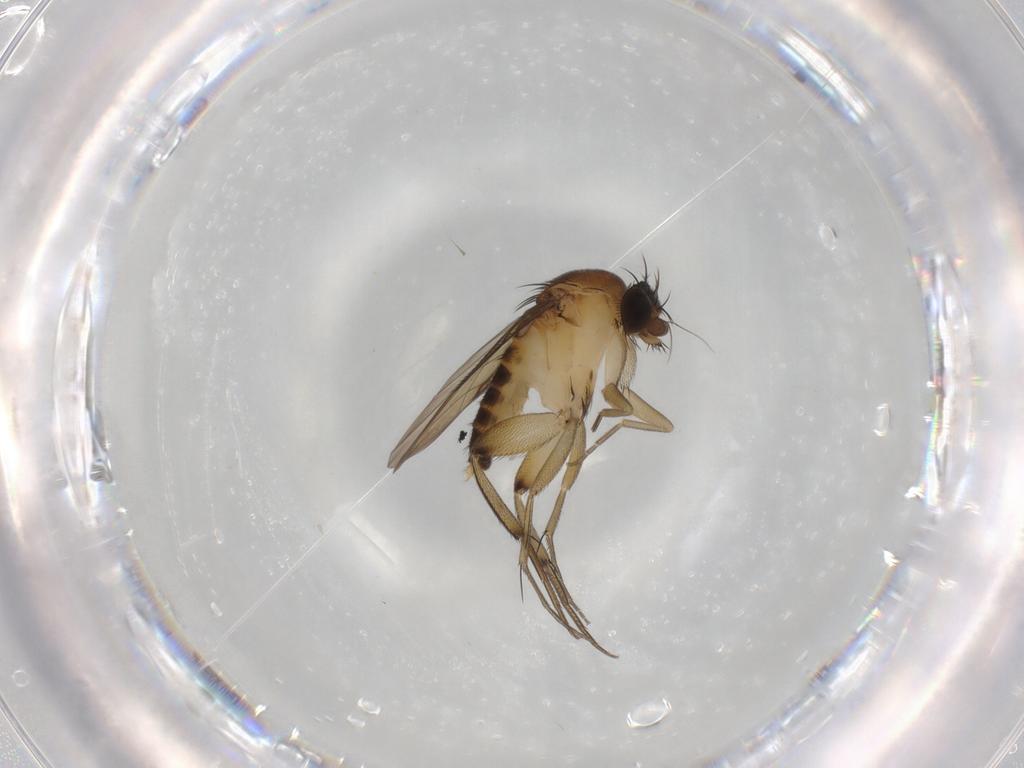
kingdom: Animalia
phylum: Arthropoda
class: Insecta
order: Diptera
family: Phoridae
